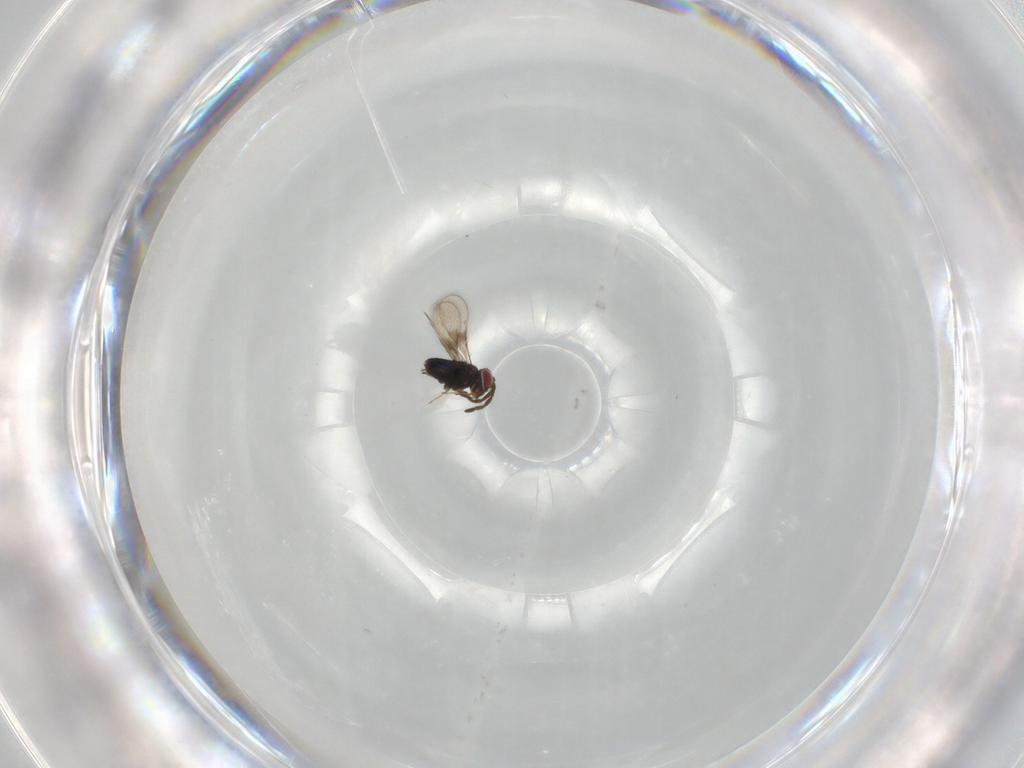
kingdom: Animalia
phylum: Arthropoda
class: Insecta
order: Hymenoptera
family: Azotidae
